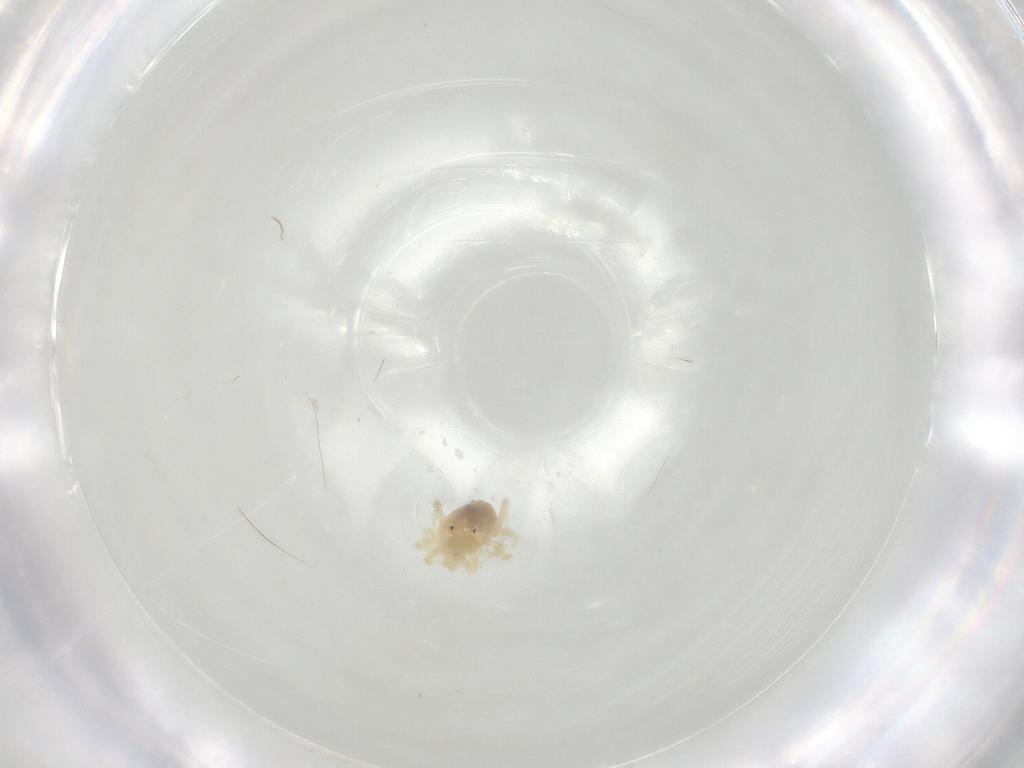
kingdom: Animalia
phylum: Arthropoda
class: Arachnida
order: Trombidiformes
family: Anystidae
